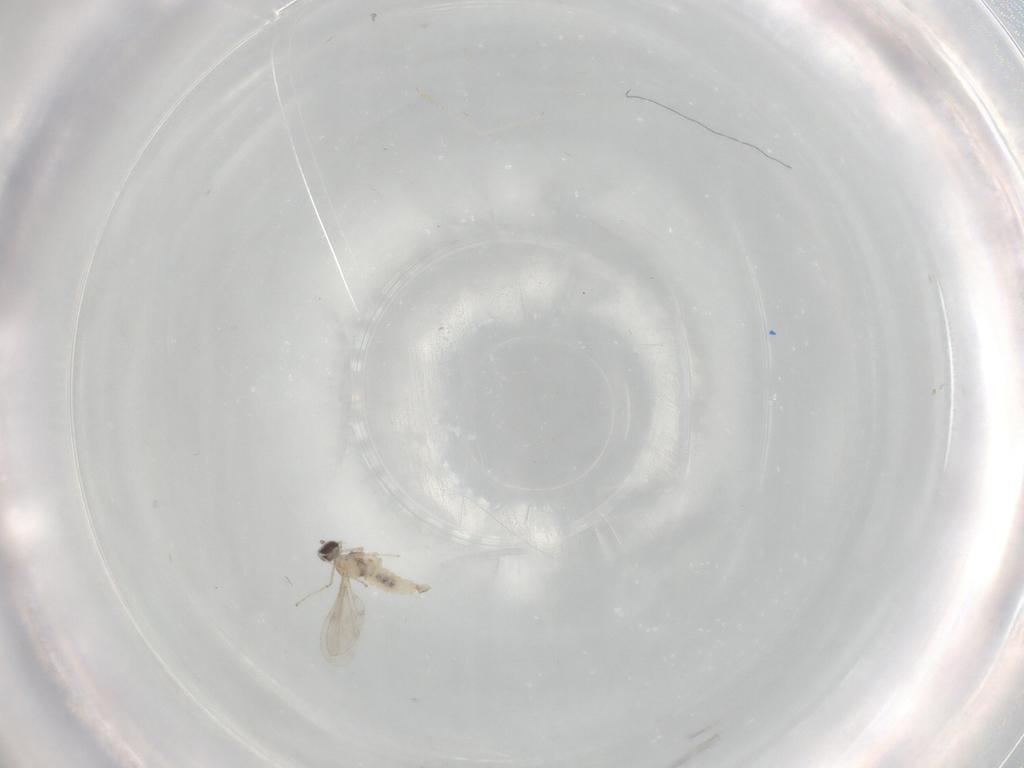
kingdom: Animalia
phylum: Arthropoda
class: Insecta
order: Diptera
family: Cecidomyiidae
